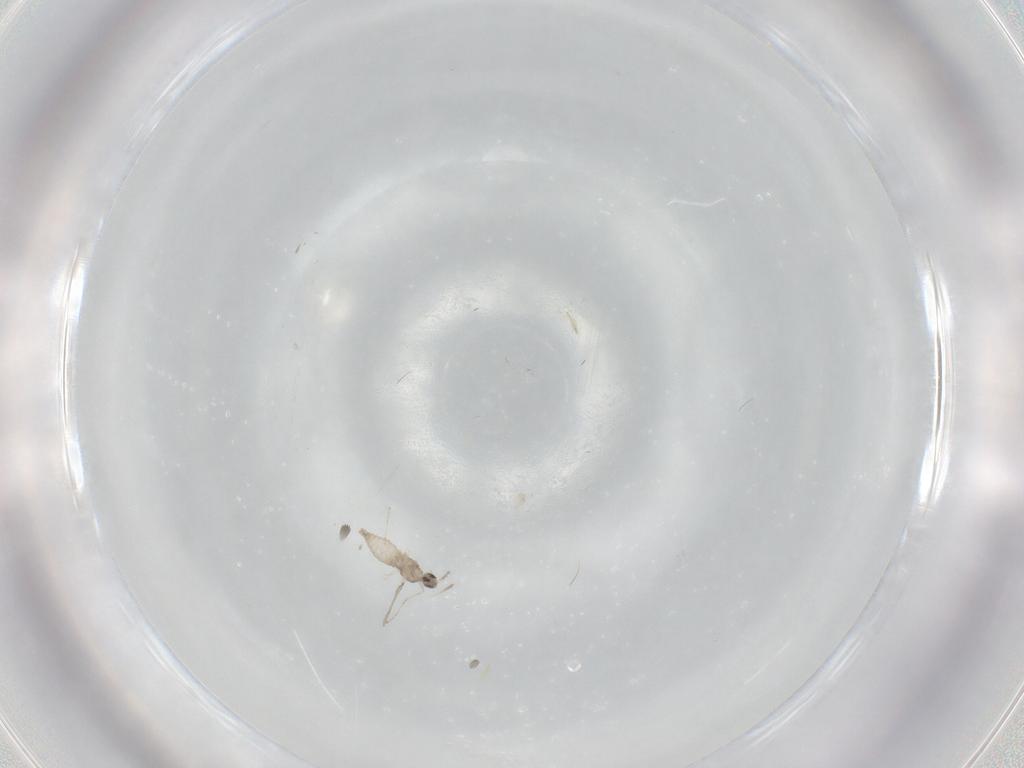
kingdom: Animalia
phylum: Arthropoda
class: Insecta
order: Diptera
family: Cecidomyiidae
